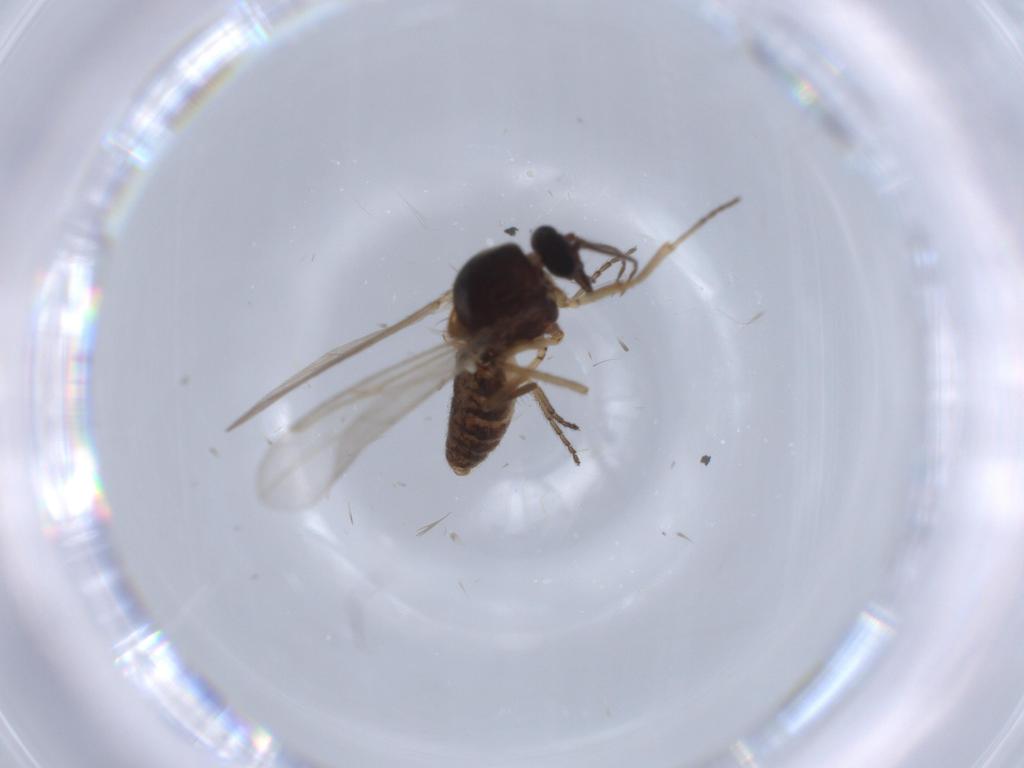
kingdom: Animalia
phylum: Arthropoda
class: Insecta
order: Diptera
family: Ceratopogonidae
